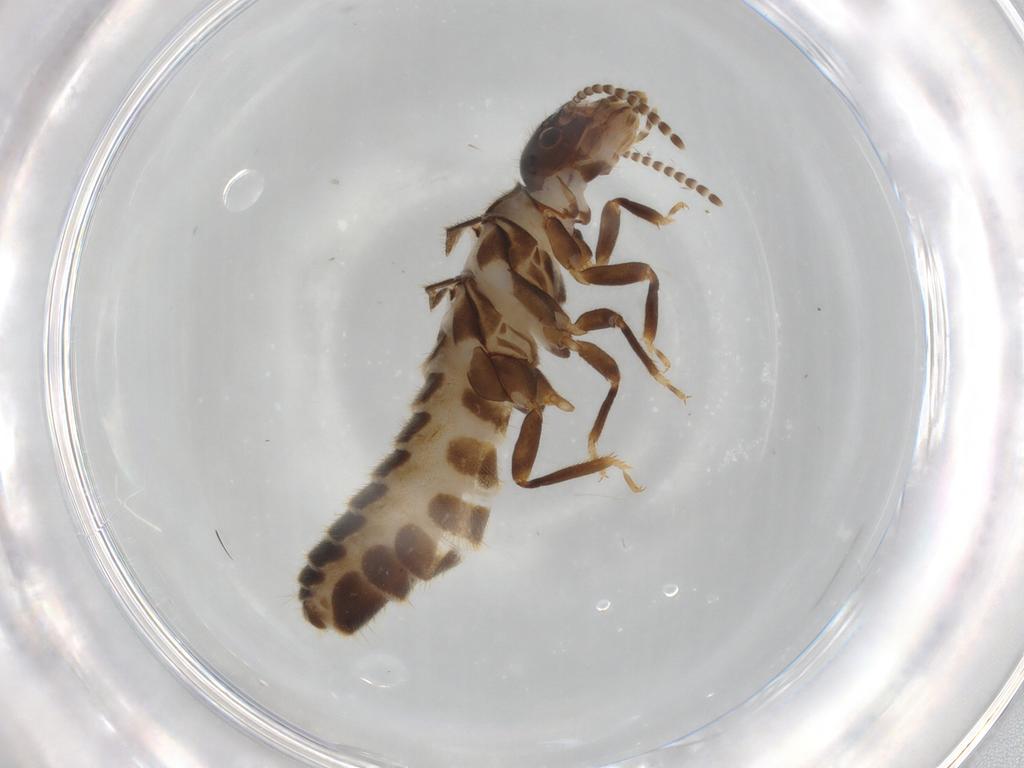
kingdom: Animalia
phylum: Arthropoda
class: Insecta
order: Blattodea
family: Termitidae
